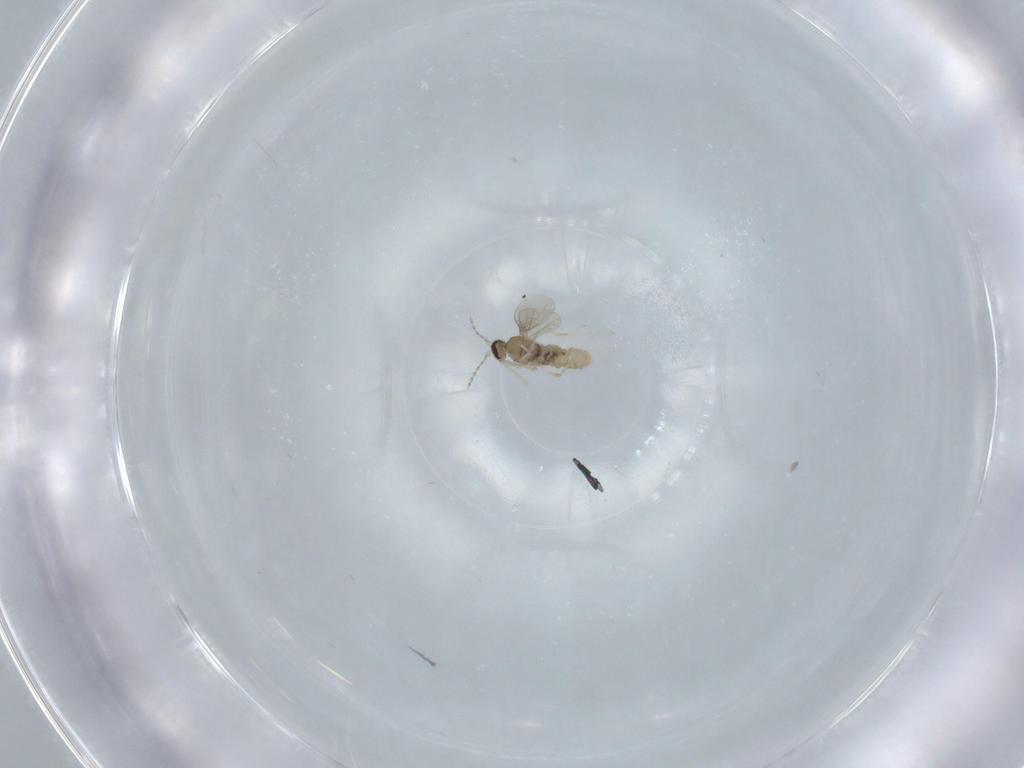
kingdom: Animalia
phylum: Arthropoda
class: Insecta
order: Diptera
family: Cecidomyiidae
